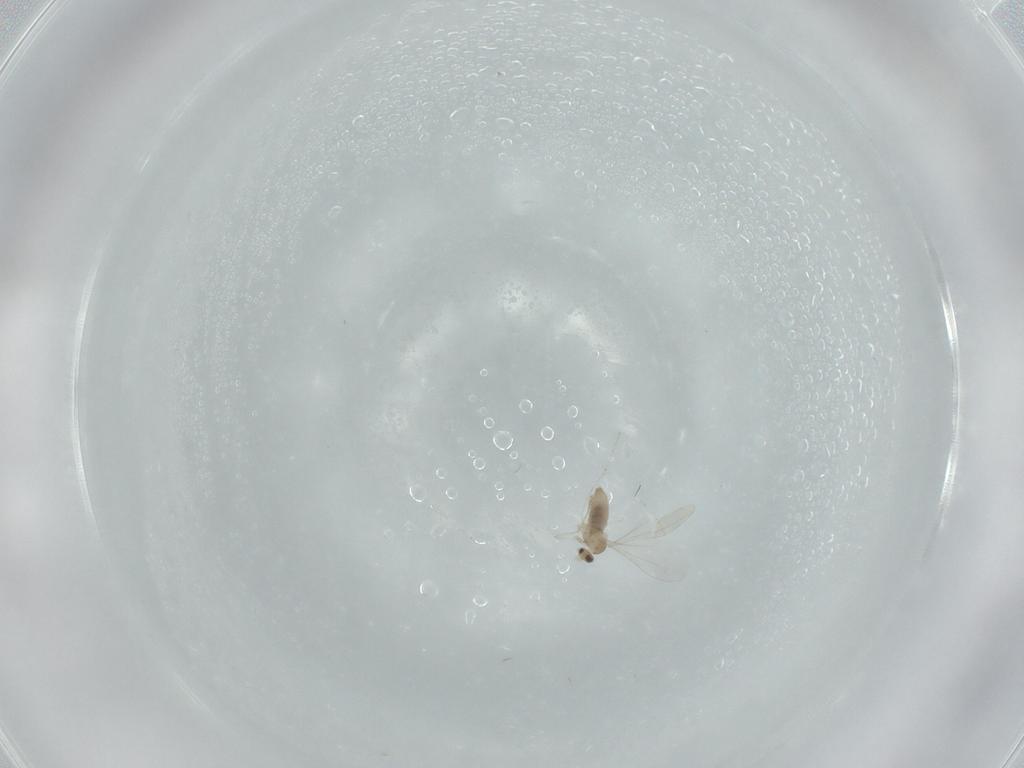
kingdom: Animalia
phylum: Arthropoda
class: Insecta
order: Diptera
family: Cecidomyiidae
